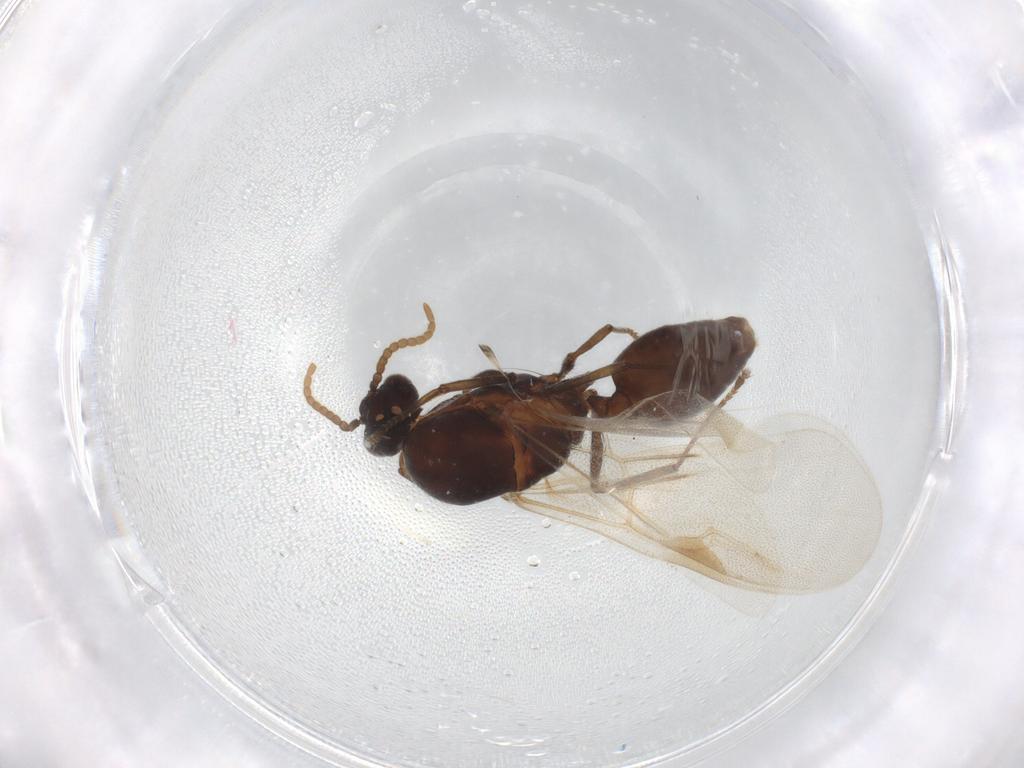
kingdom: Animalia
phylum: Arthropoda
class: Insecta
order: Hymenoptera
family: Formicidae
